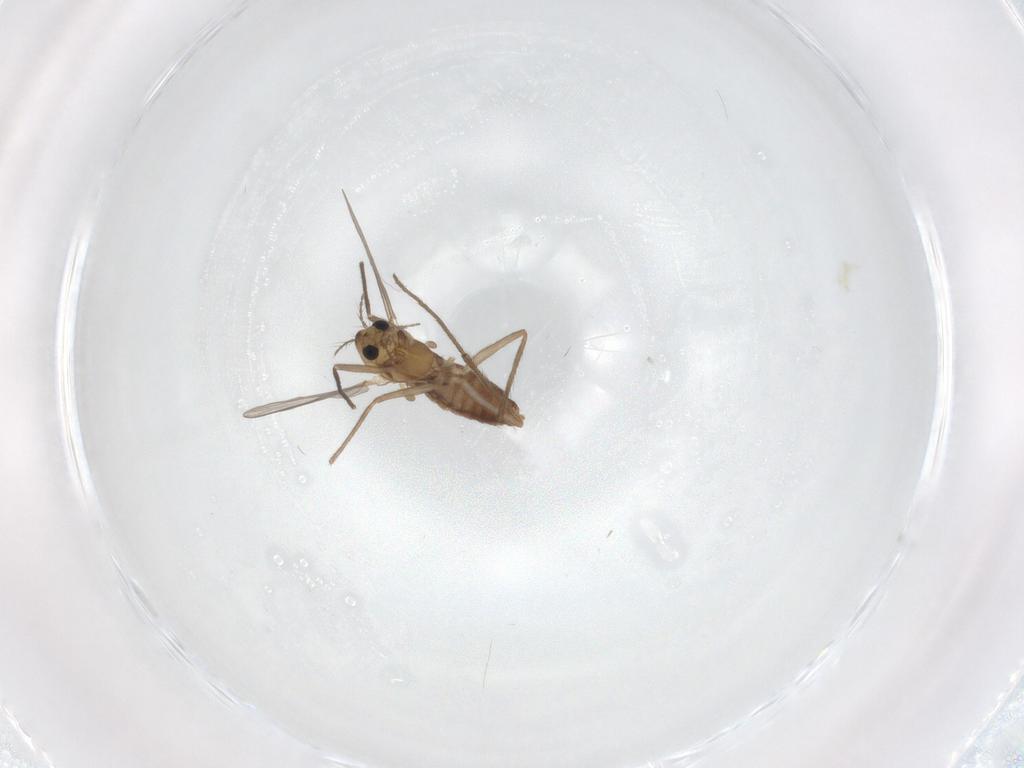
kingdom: Animalia
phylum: Arthropoda
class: Insecta
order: Diptera
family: Chironomidae
